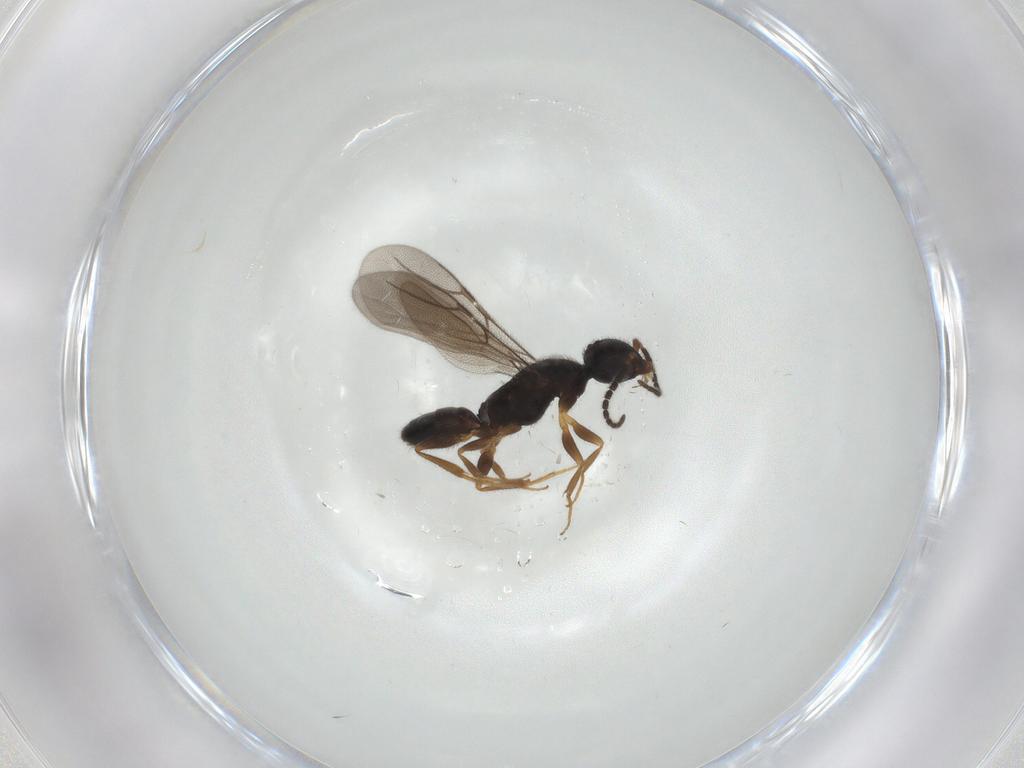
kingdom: Animalia
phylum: Arthropoda
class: Insecta
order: Hymenoptera
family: Bethylidae
